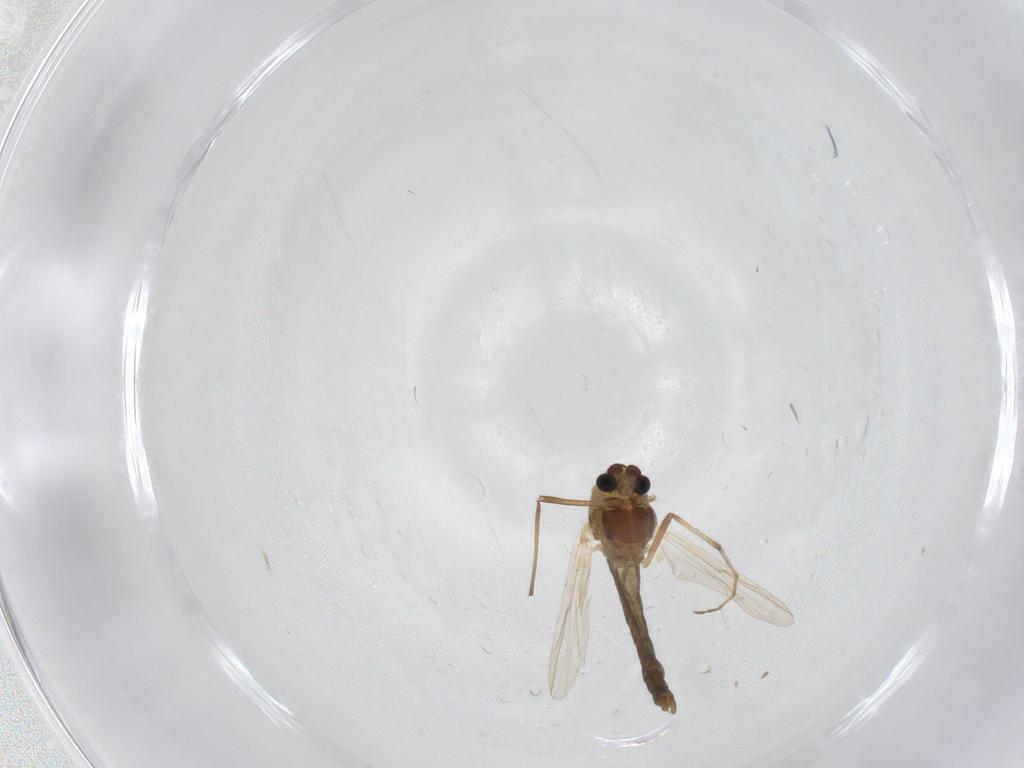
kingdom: Animalia
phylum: Arthropoda
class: Insecta
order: Diptera
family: Chironomidae
